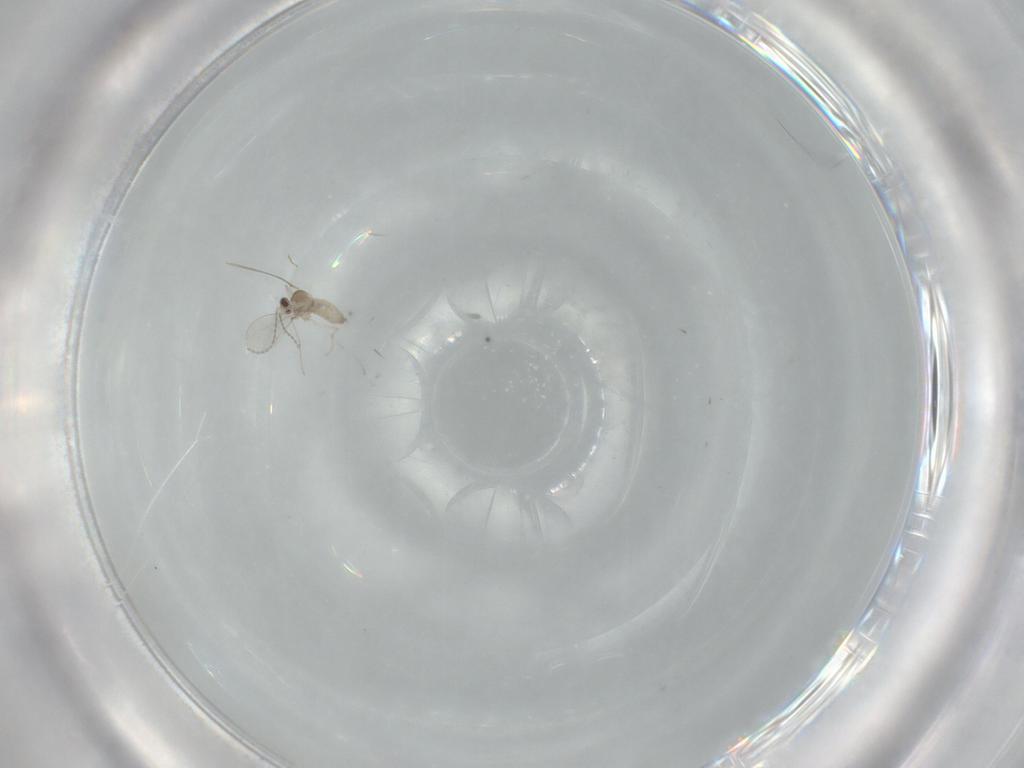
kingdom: Animalia
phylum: Arthropoda
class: Insecta
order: Diptera
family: Cecidomyiidae
